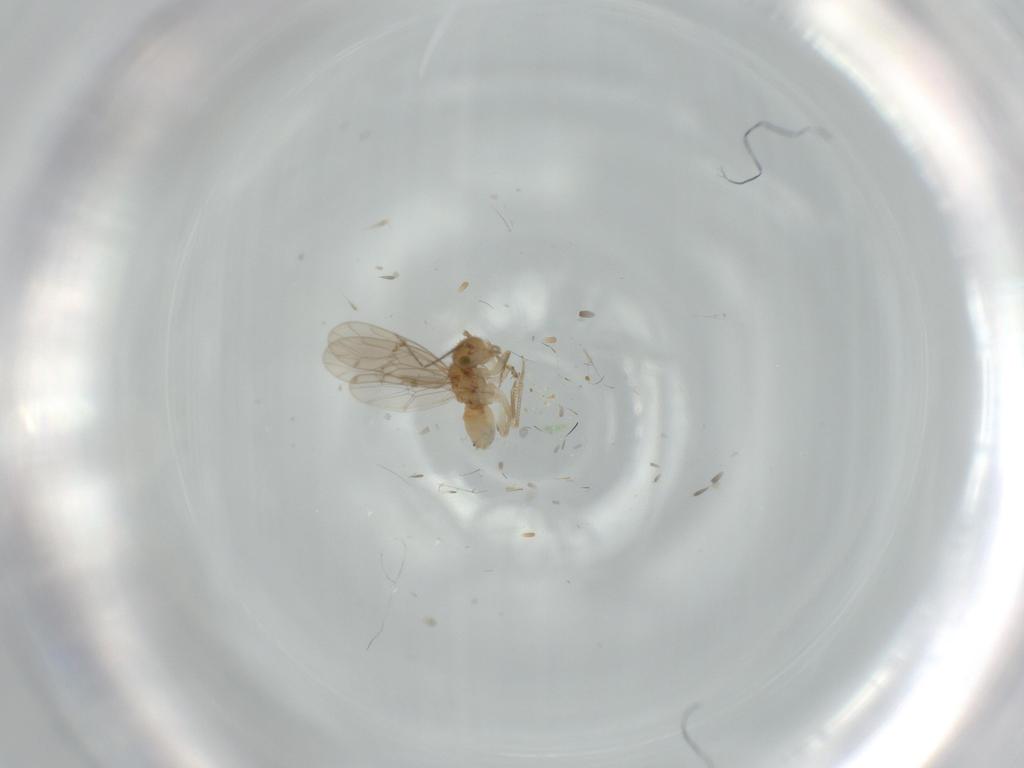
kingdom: Animalia
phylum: Arthropoda
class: Insecta
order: Psocodea
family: Ectopsocidae
